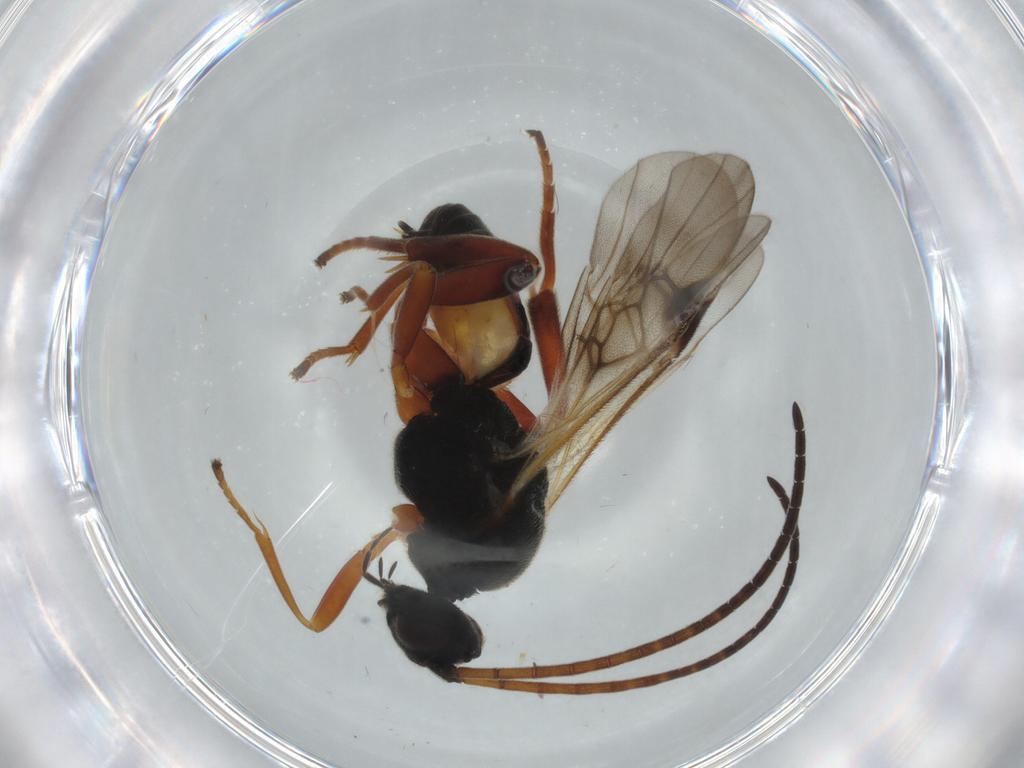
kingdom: Animalia
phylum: Arthropoda
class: Insecta
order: Hymenoptera
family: Braconidae
